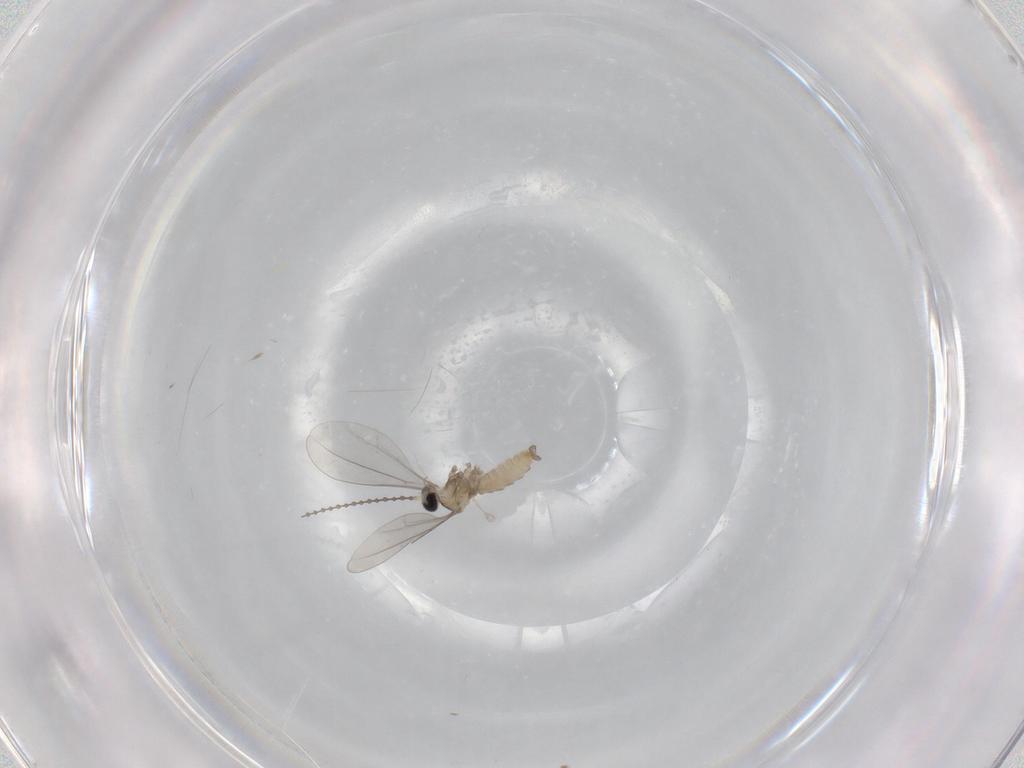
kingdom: Animalia
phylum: Arthropoda
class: Insecta
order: Diptera
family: Cecidomyiidae
